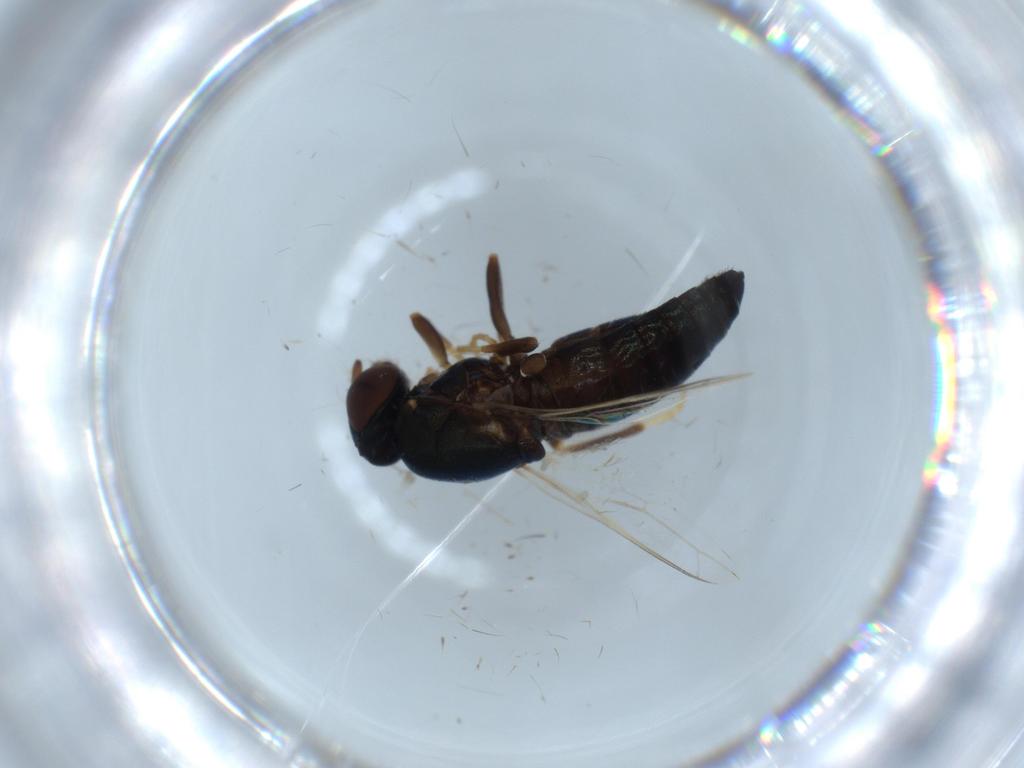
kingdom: Animalia
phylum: Arthropoda
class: Insecta
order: Diptera
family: Scenopinidae
